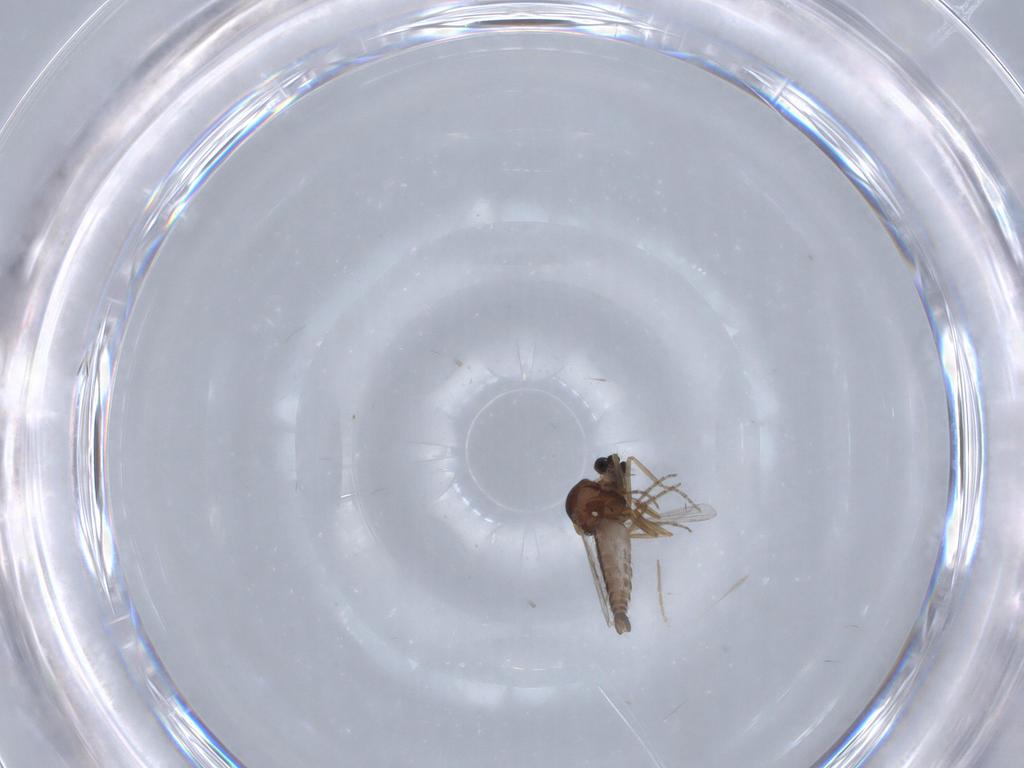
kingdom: Animalia
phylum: Arthropoda
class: Insecta
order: Diptera
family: Chironomidae
